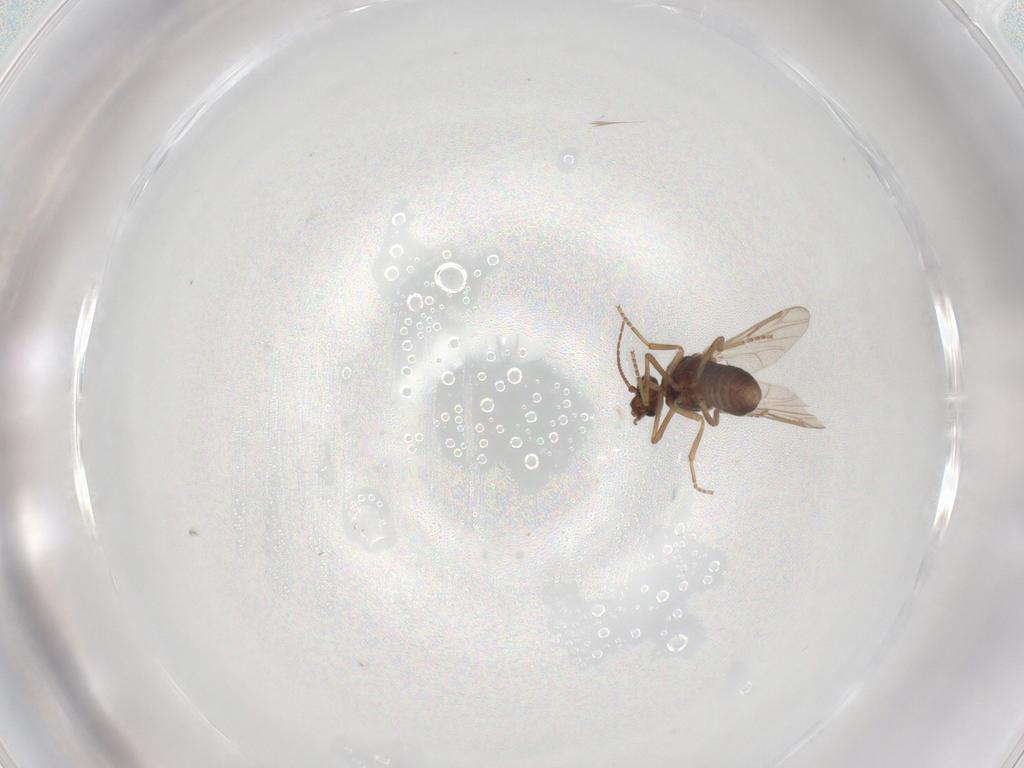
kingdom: Animalia
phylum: Arthropoda
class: Insecta
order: Diptera
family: Ceratopogonidae
